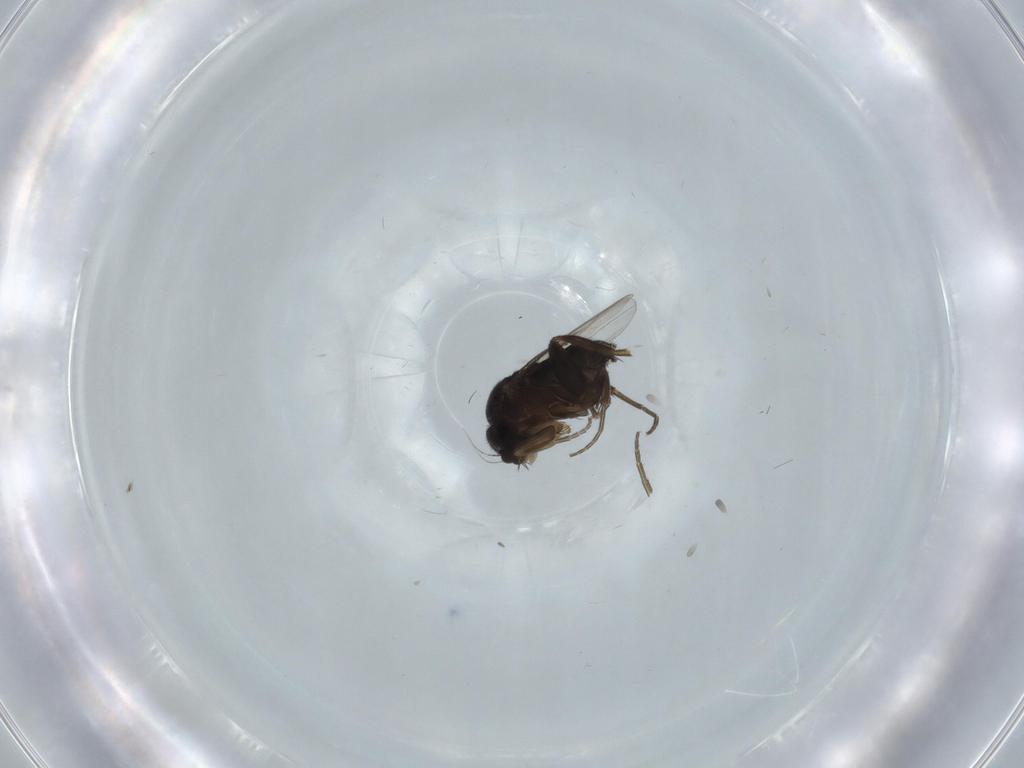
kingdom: Animalia
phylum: Arthropoda
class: Insecta
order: Diptera
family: Phoridae
